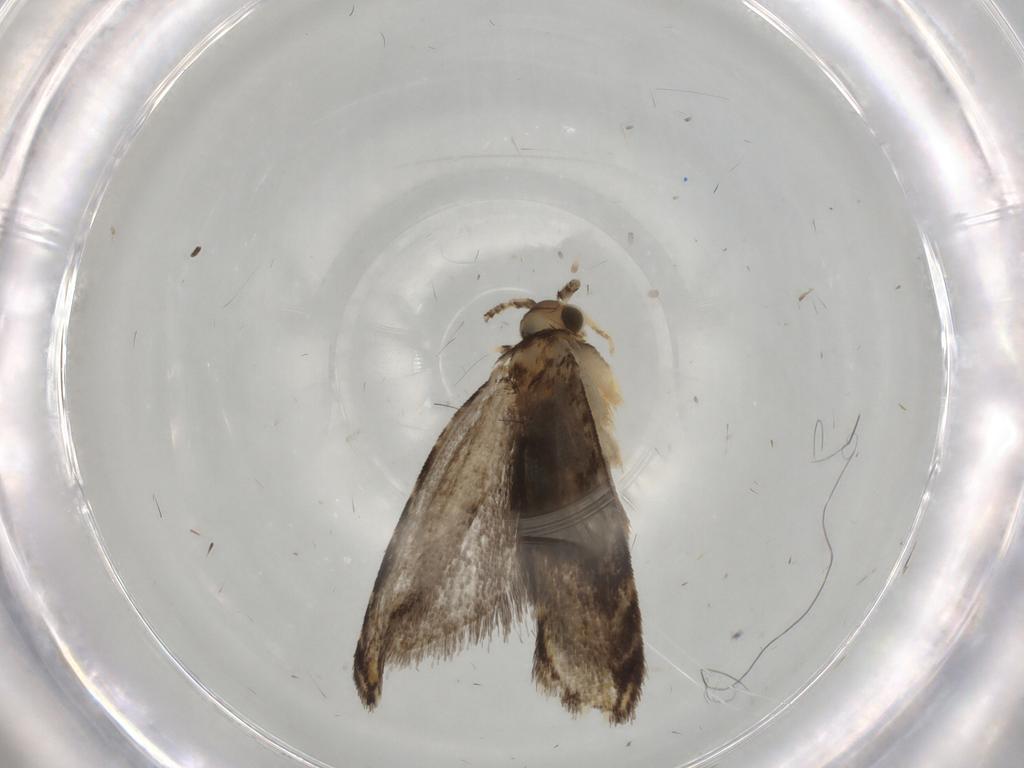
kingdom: Animalia
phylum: Arthropoda
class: Insecta
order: Lepidoptera
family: Tineidae
